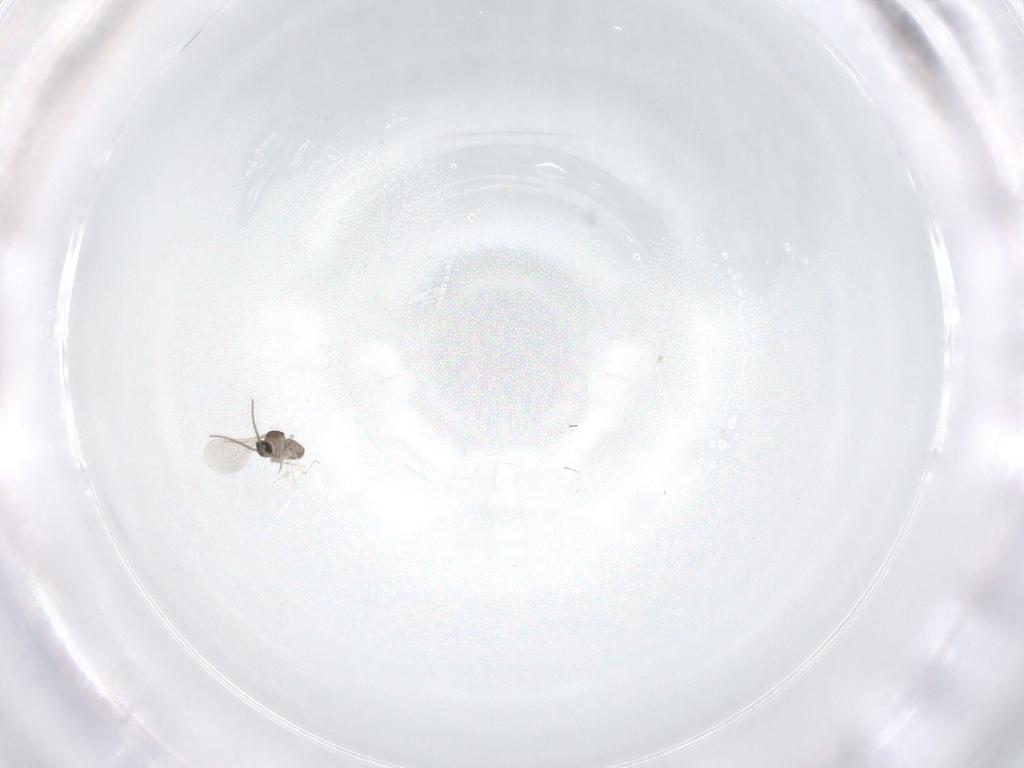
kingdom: Animalia
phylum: Arthropoda
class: Insecta
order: Diptera
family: Cecidomyiidae
